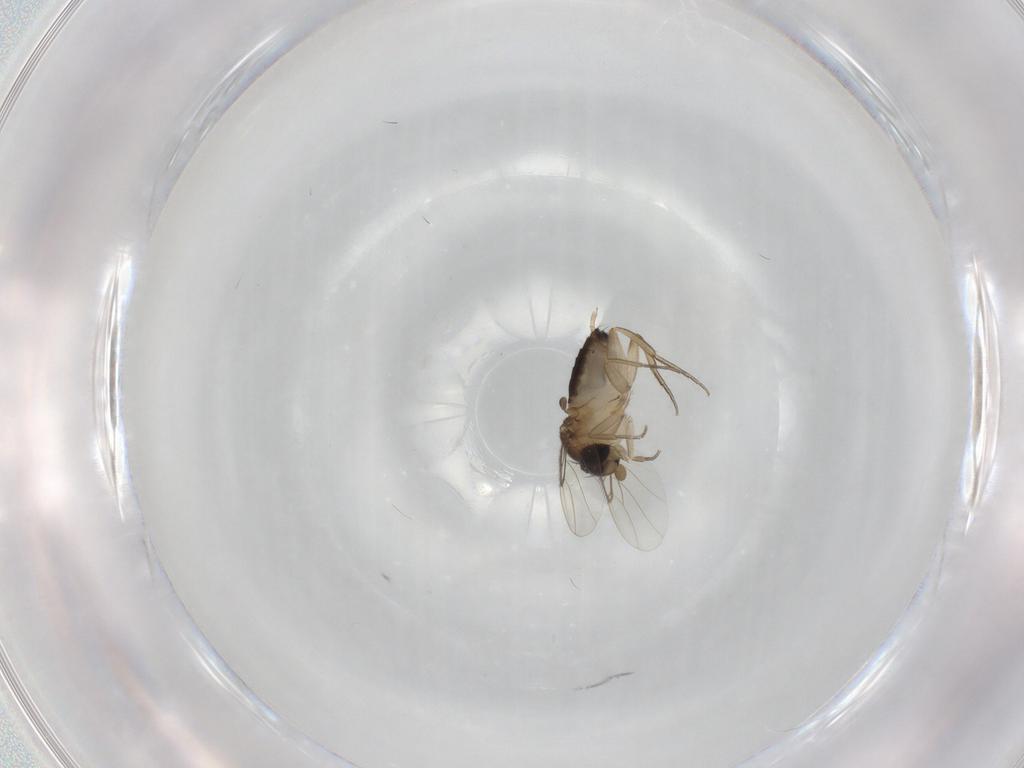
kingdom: Animalia
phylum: Arthropoda
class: Insecta
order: Diptera
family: Phoridae
